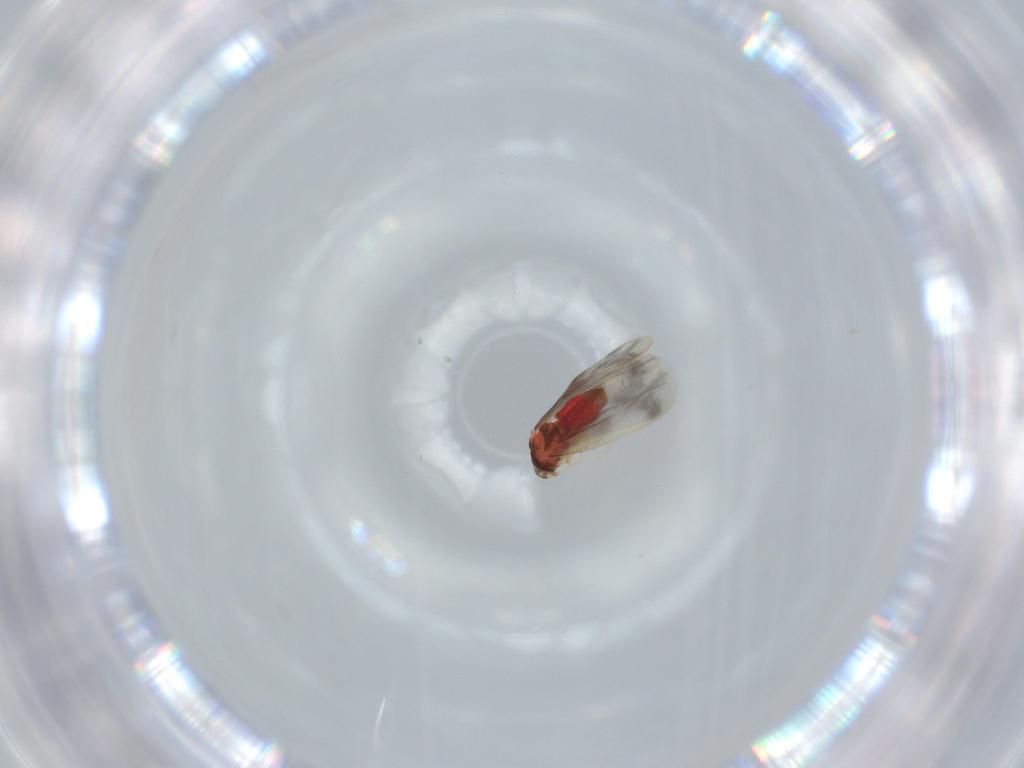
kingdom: Animalia
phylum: Arthropoda
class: Insecta
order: Hemiptera
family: Aleyrodidae
